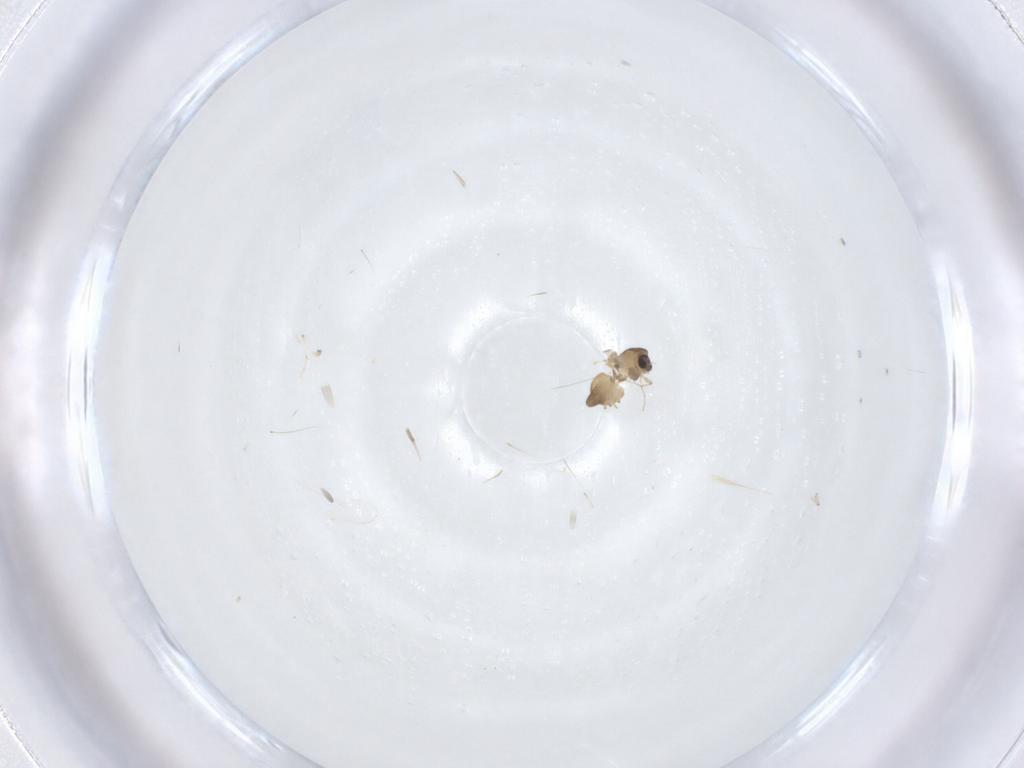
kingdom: Animalia
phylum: Arthropoda
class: Insecta
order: Diptera
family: Chironomidae
